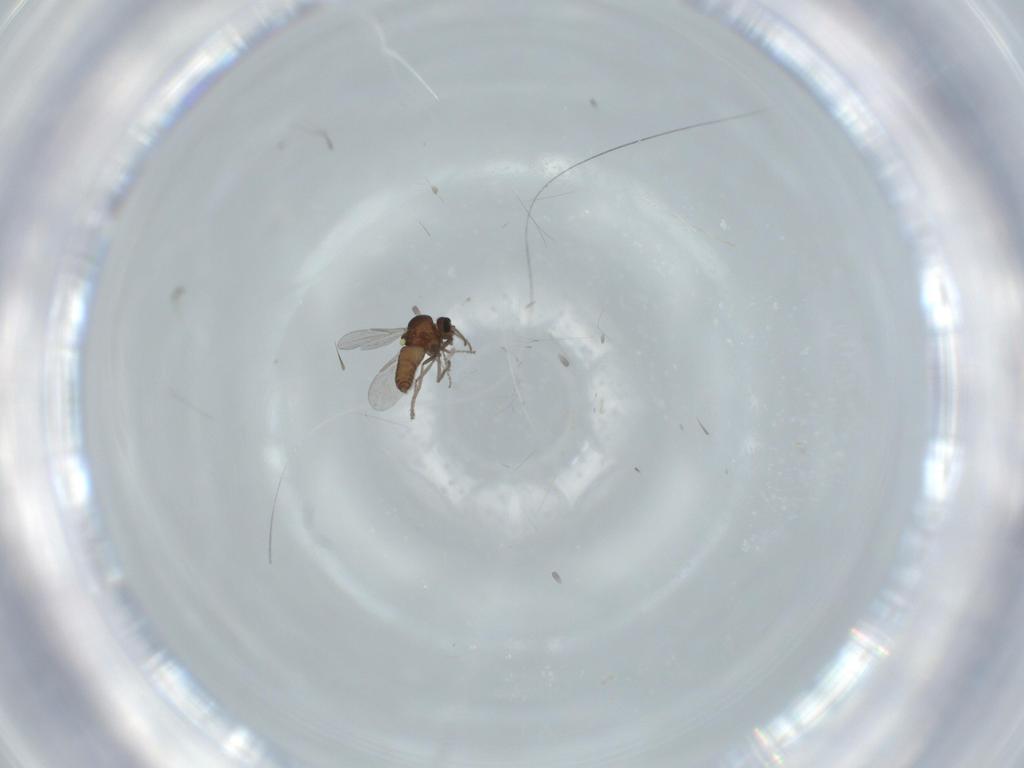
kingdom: Animalia
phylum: Arthropoda
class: Insecta
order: Diptera
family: Ceratopogonidae
